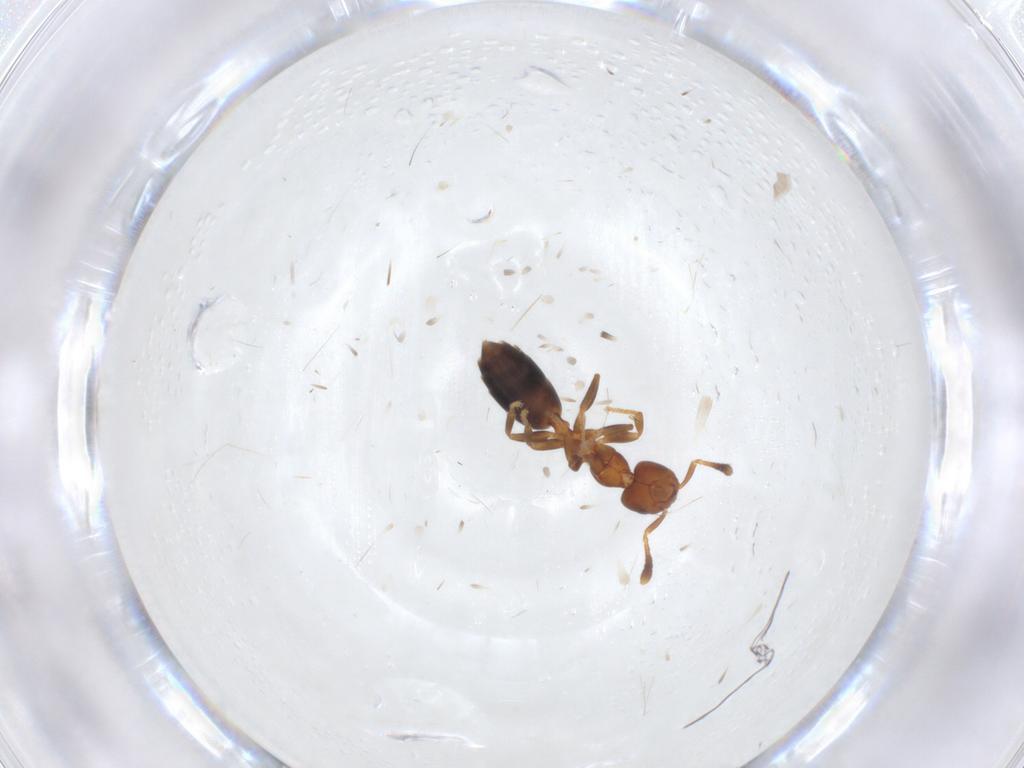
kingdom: Animalia
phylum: Arthropoda
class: Insecta
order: Hymenoptera
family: Formicidae
